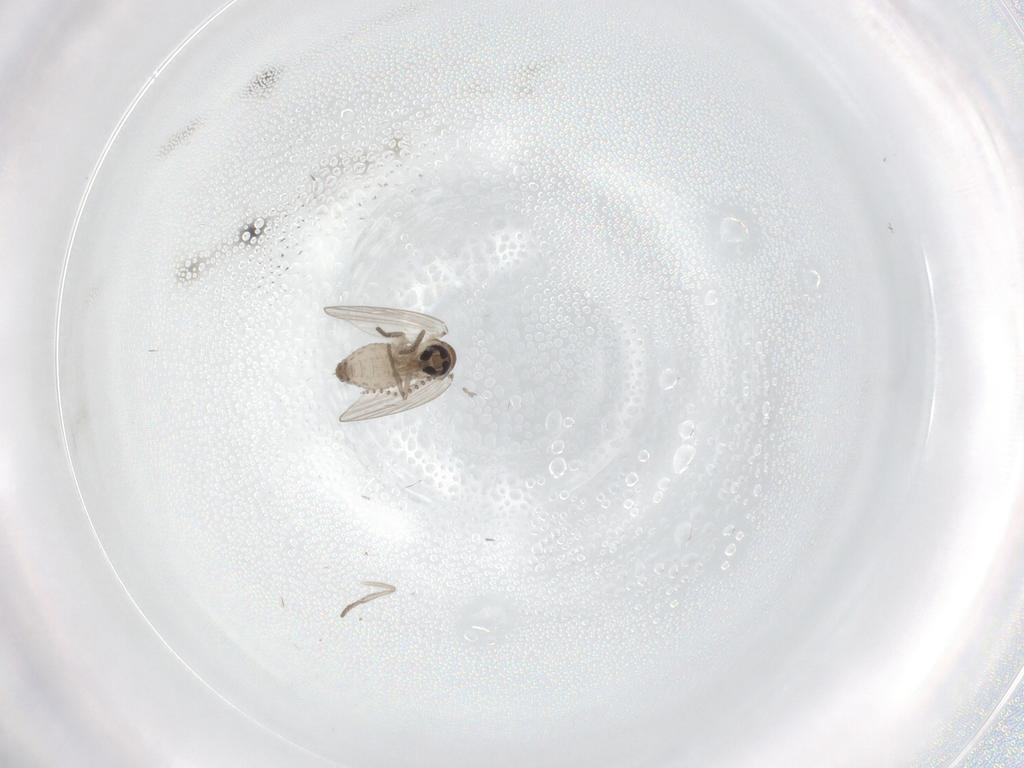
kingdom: Animalia
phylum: Arthropoda
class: Insecta
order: Diptera
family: Psychodidae
